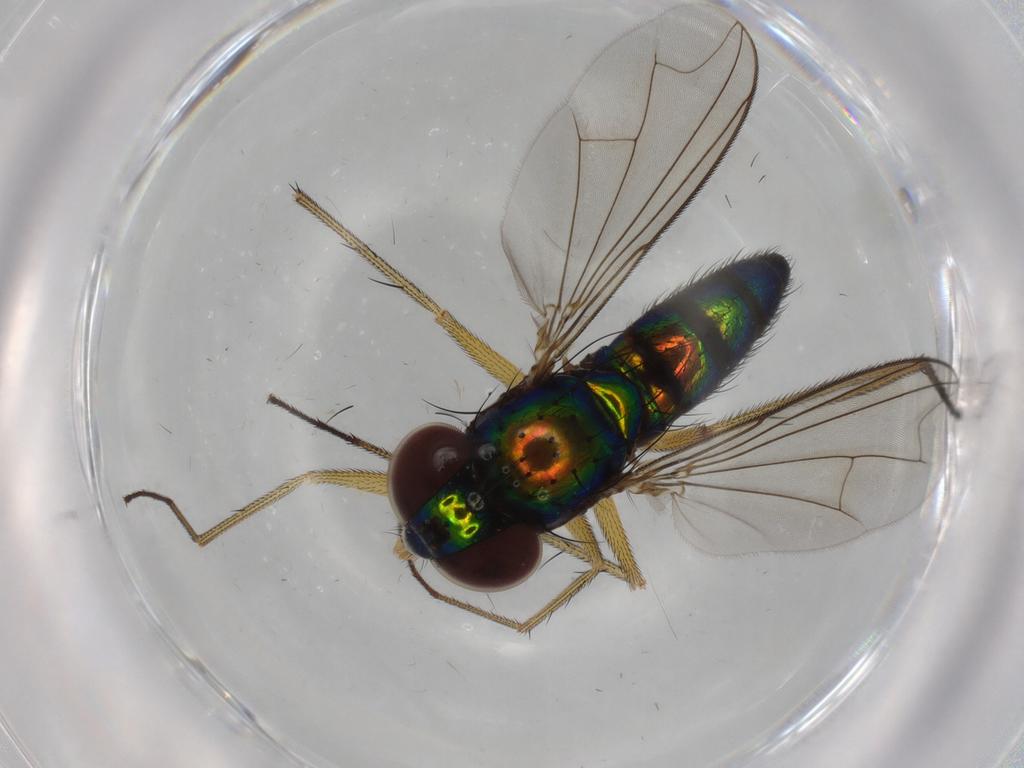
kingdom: Animalia
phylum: Arthropoda
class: Insecta
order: Diptera
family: Dolichopodidae
